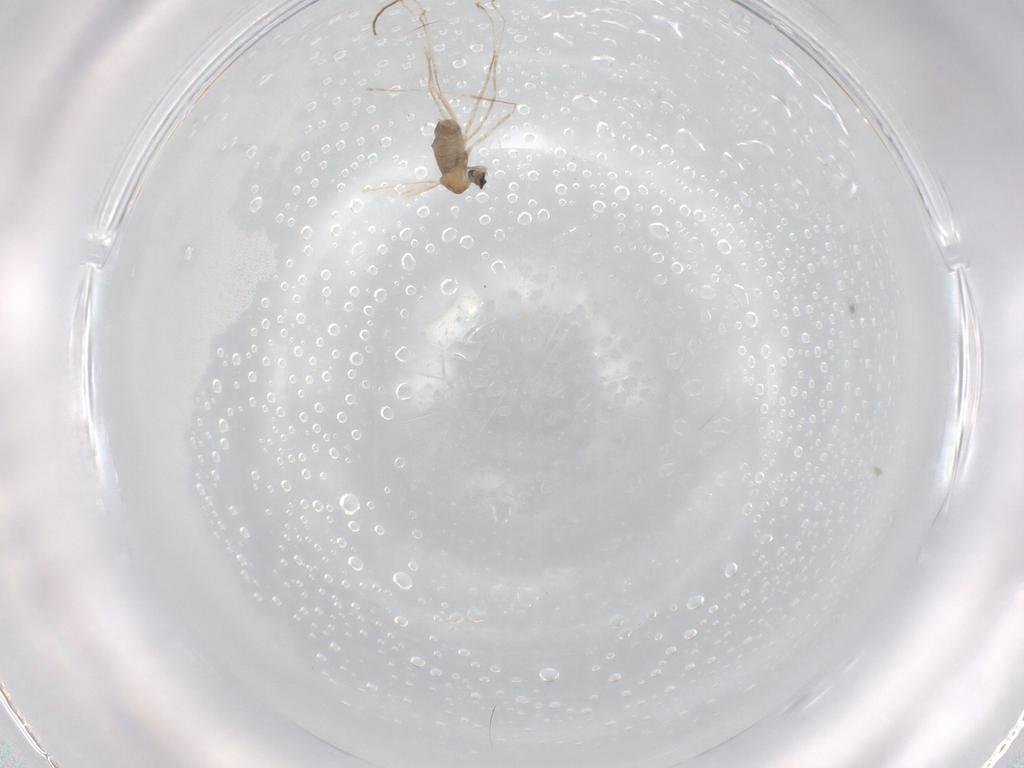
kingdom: Animalia
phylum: Arthropoda
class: Insecta
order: Diptera
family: Cecidomyiidae
